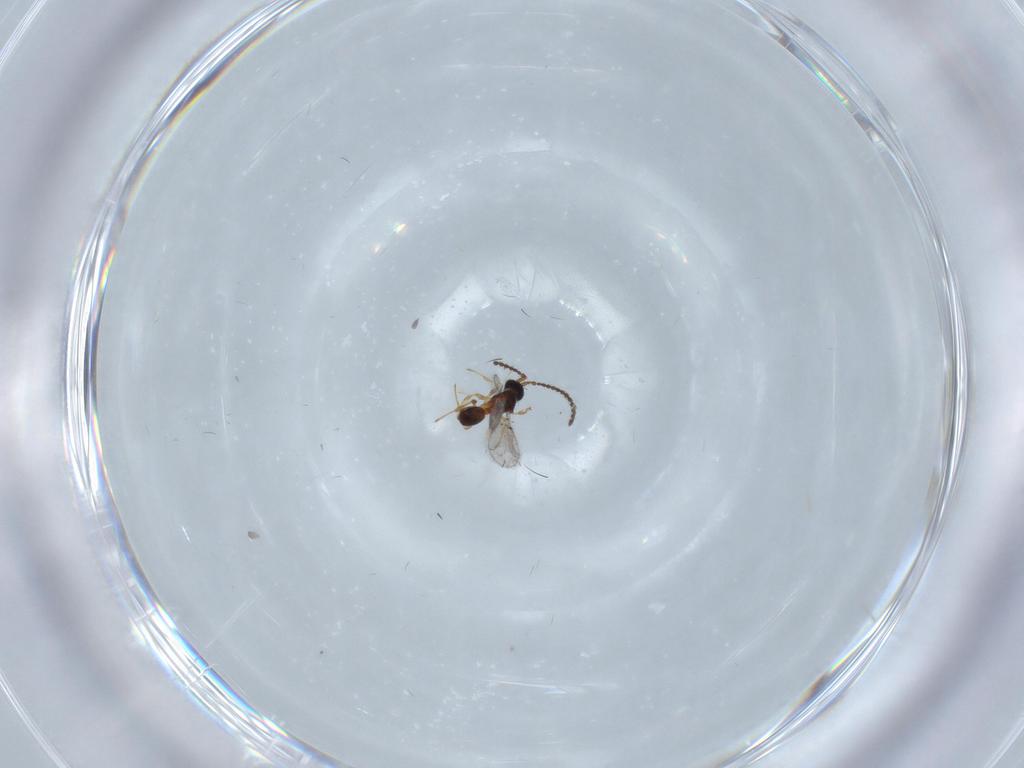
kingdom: Animalia
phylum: Arthropoda
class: Insecta
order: Hymenoptera
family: Diapriidae
